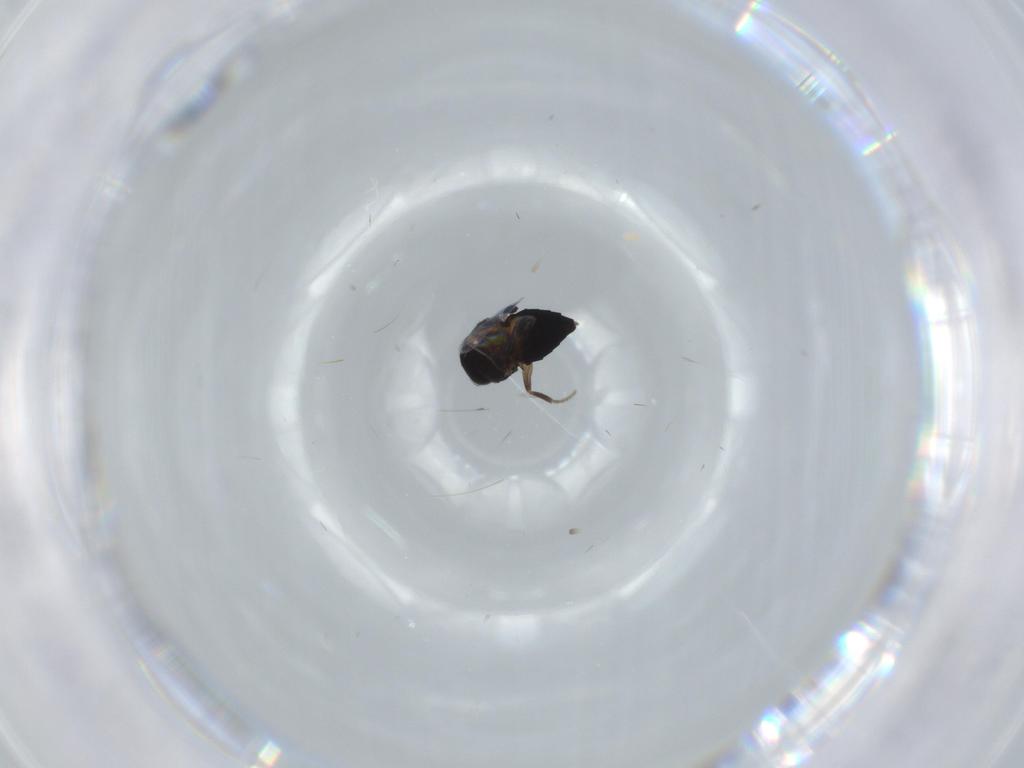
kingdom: Animalia
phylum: Arthropoda
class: Insecta
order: Diptera
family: Phoridae
